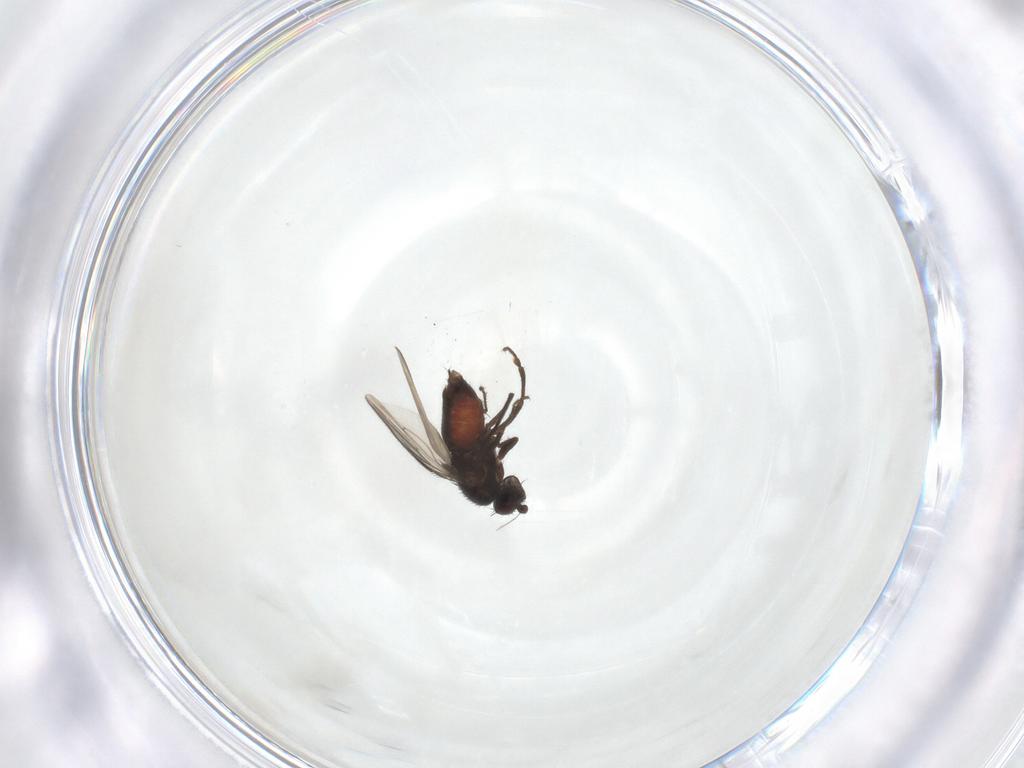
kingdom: Animalia
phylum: Arthropoda
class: Insecta
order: Diptera
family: Sphaeroceridae
